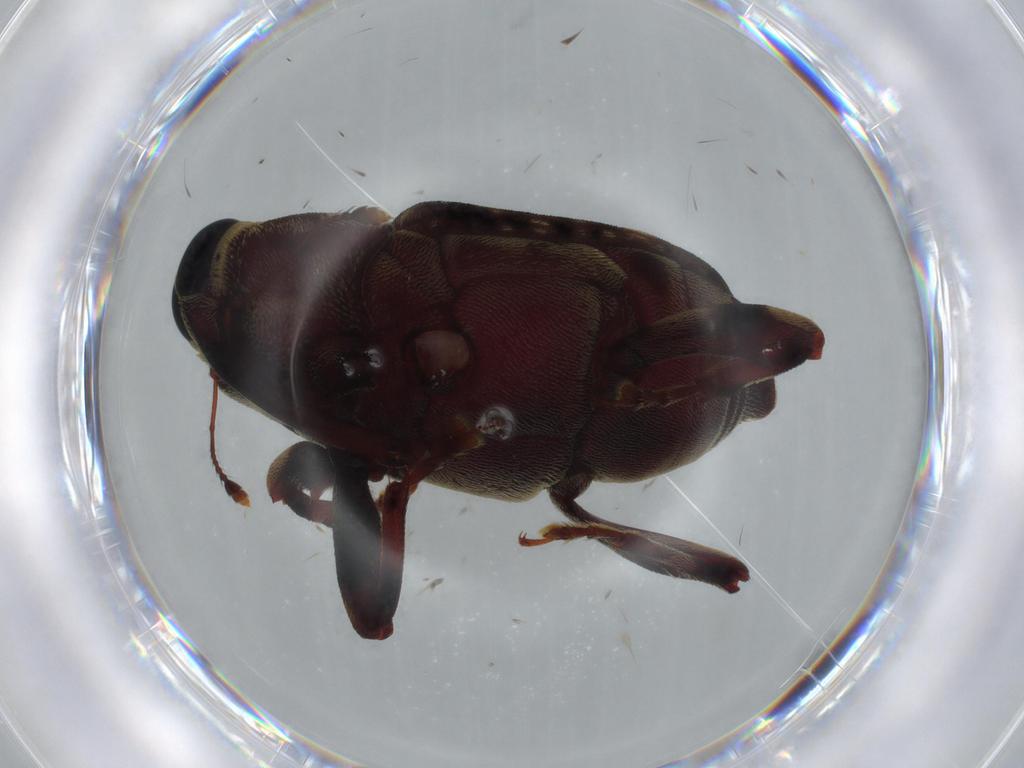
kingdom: Animalia
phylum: Arthropoda
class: Insecta
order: Coleoptera
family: Curculionidae
